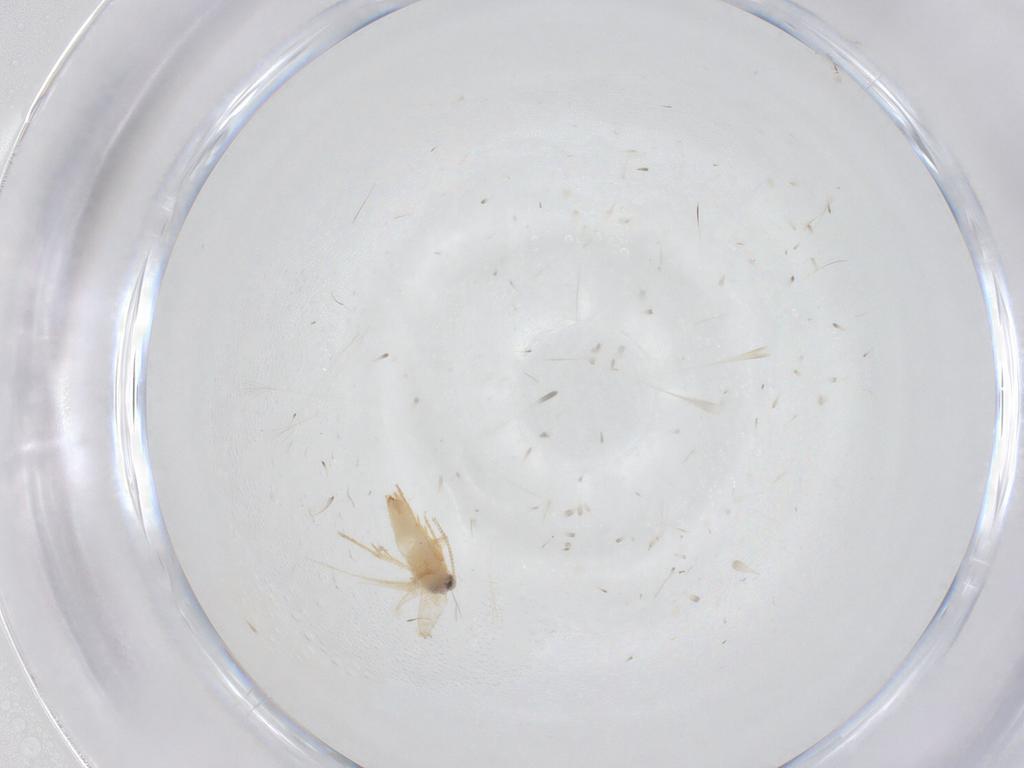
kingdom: Animalia
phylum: Arthropoda
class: Insecta
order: Lepidoptera
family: Crambidae
